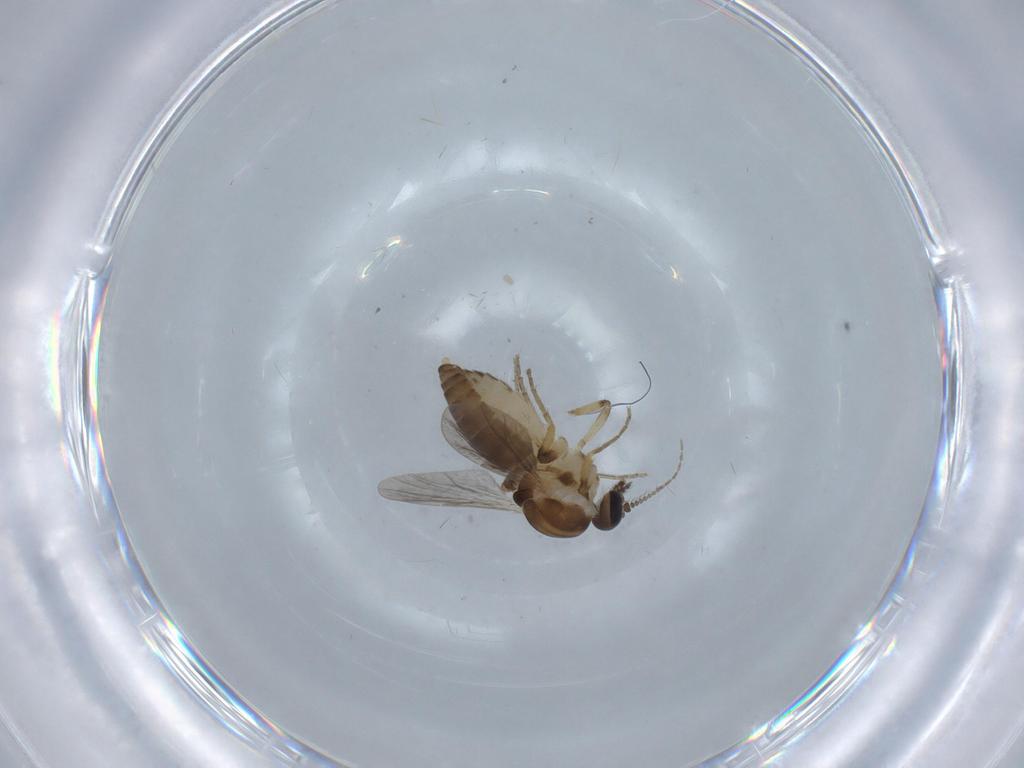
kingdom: Animalia
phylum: Arthropoda
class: Insecta
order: Diptera
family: Ceratopogonidae
